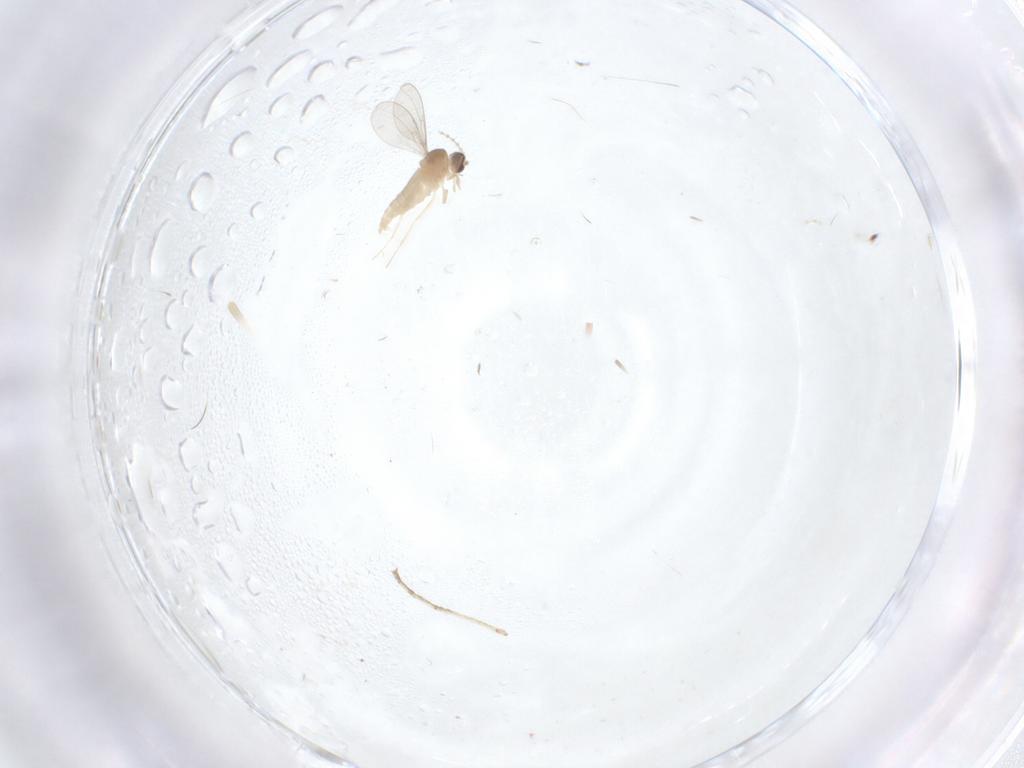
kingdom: Animalia
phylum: Arthropoda
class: Insecta
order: Diptera
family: Cecidomyiidae
